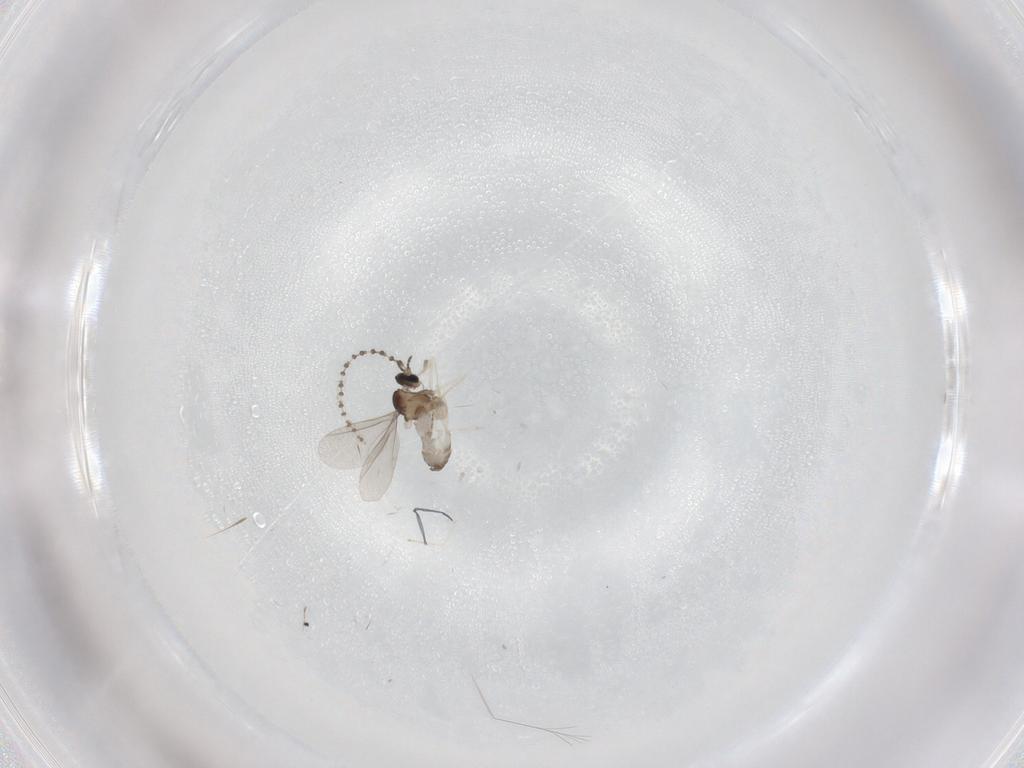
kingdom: Animalia
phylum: Arthropoda
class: Insecta
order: Diptera
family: Cecidomyiidae
